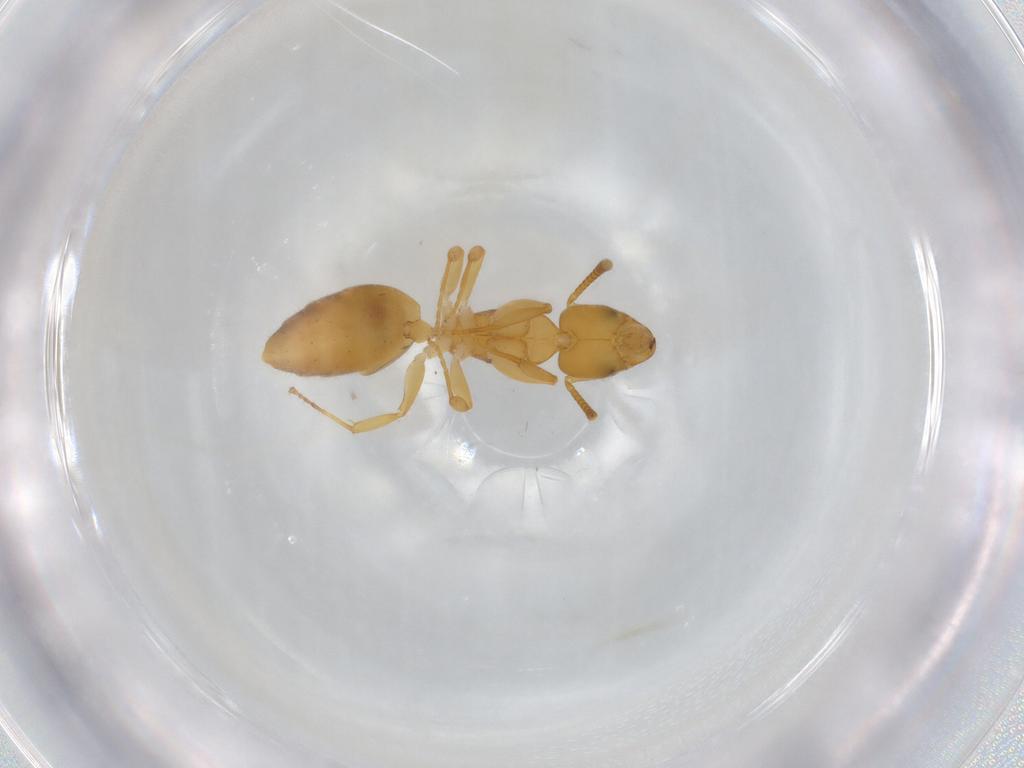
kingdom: Animalia
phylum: Arthropoda
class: Insecta
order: Hymenoptera
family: Formicidae
